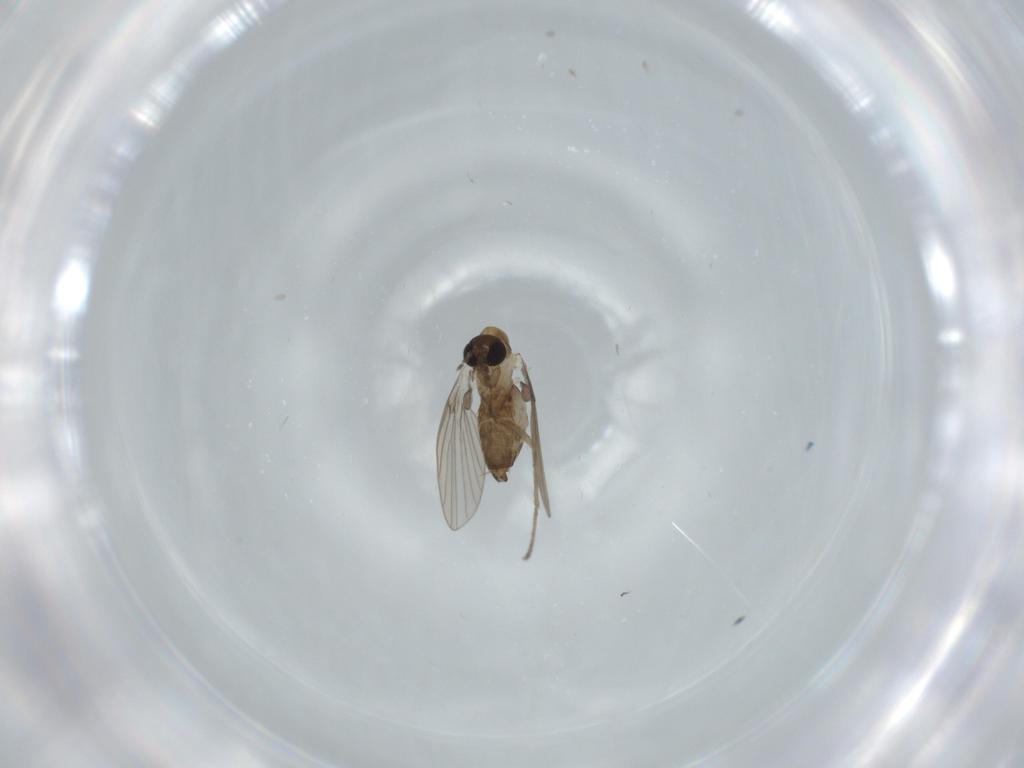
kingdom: Animalia
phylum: Arthropoda
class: Insecta
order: Diptera
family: Psychodidae
